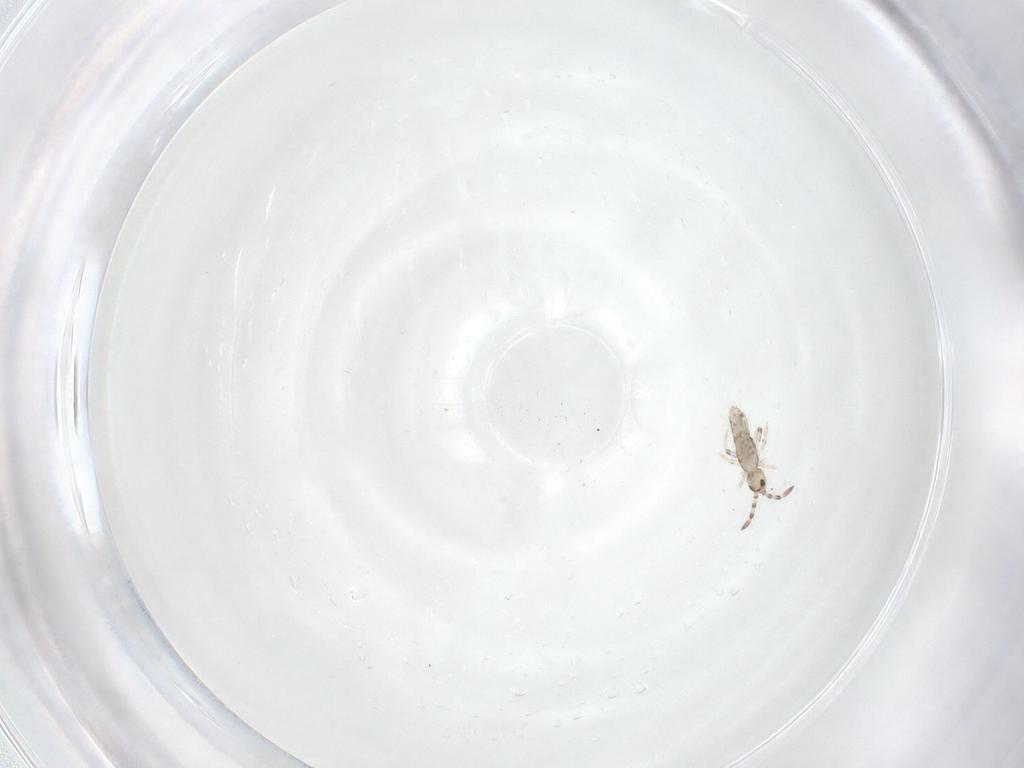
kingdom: Animalia
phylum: Arthropoda
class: Collembola
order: Entomobryomorpha
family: Entomobryidae
